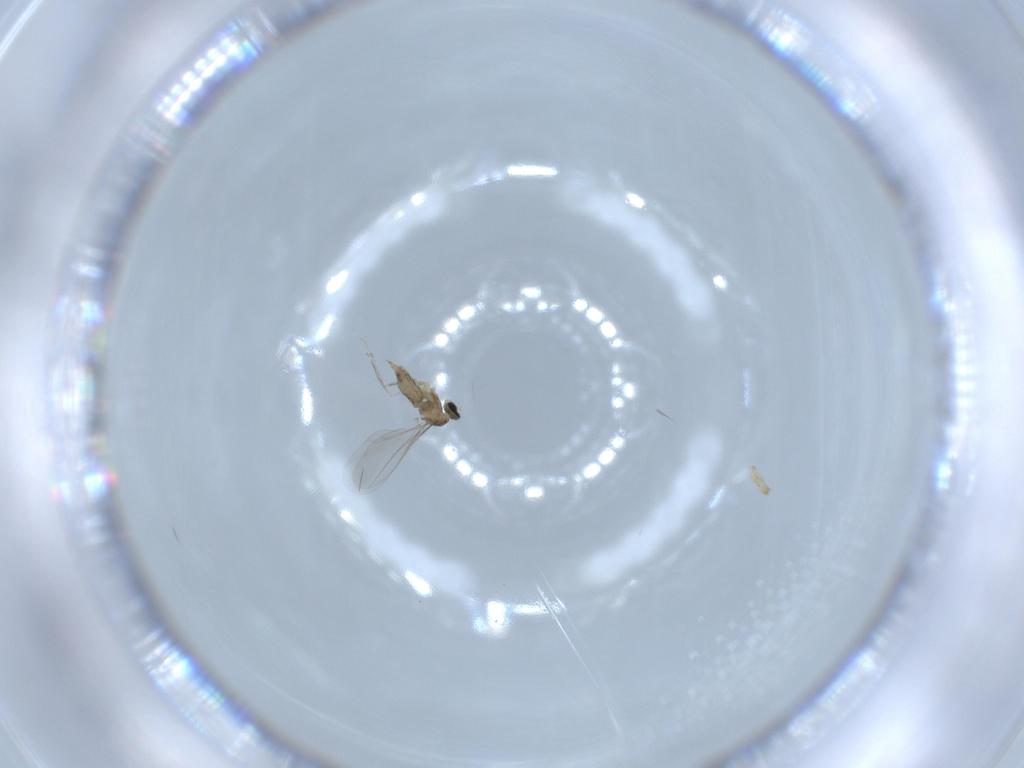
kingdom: Animalia
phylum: Arthropoda
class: Insecta
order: Diptera
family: Cecidomyiidae
